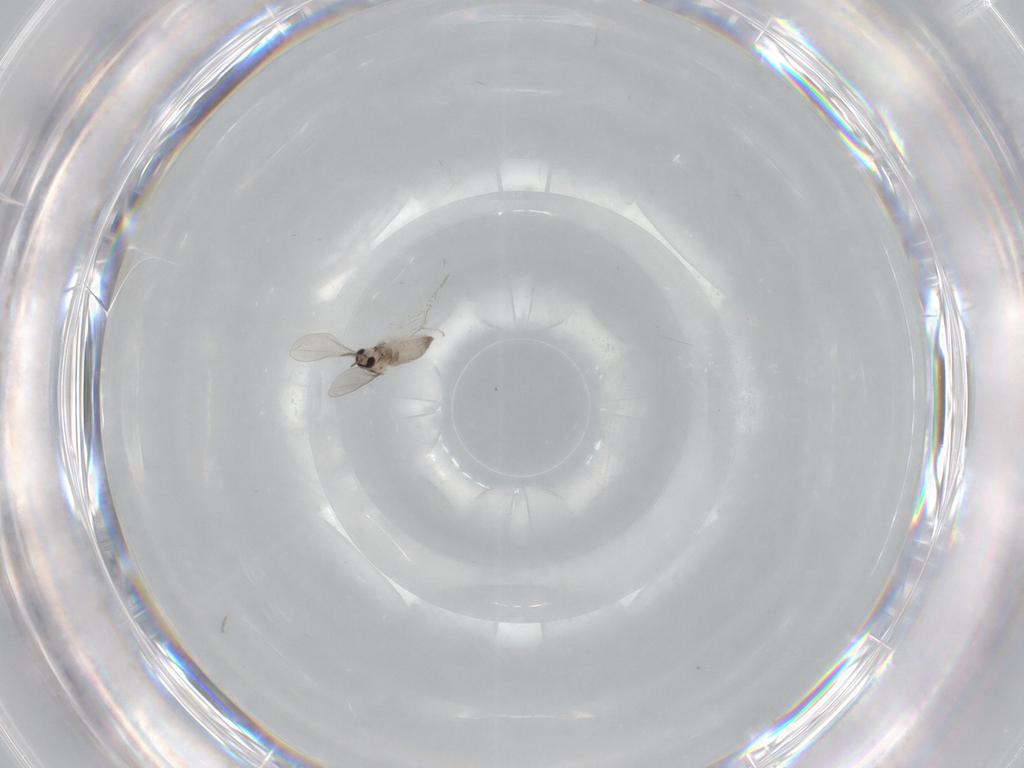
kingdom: Animalia
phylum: Arthropoda
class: Insecta
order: Diptera
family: Cecidomyiidae
